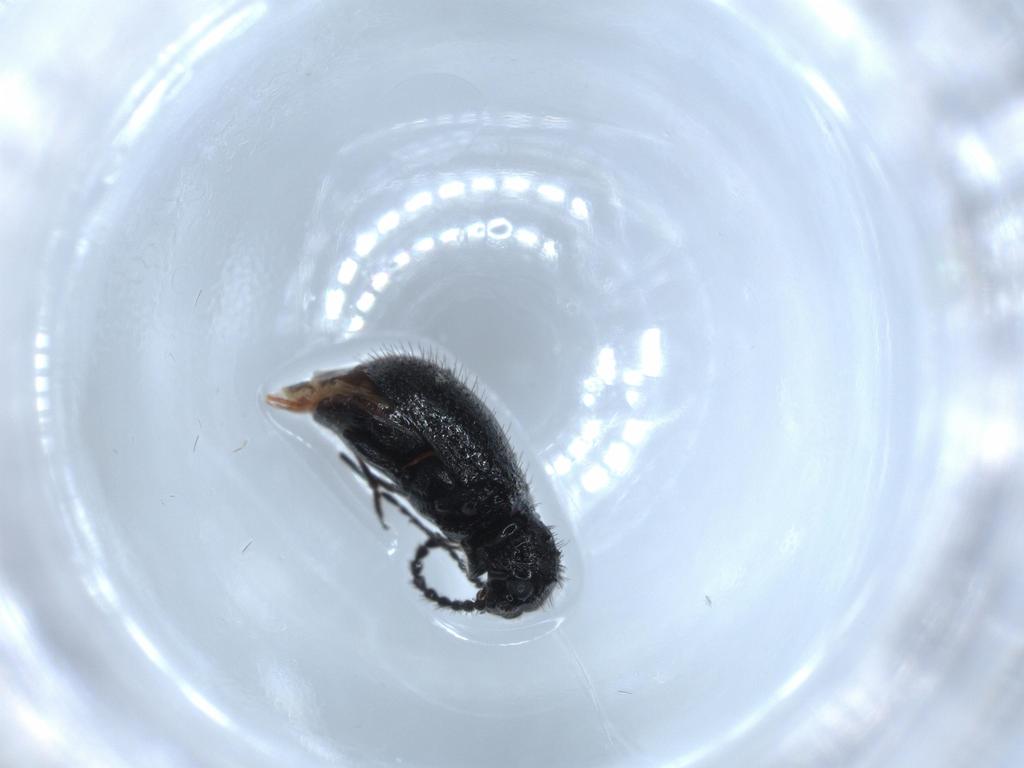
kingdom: Animalia
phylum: Arthropoda
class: Insecta
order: Coleoptera
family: Ptinidae
